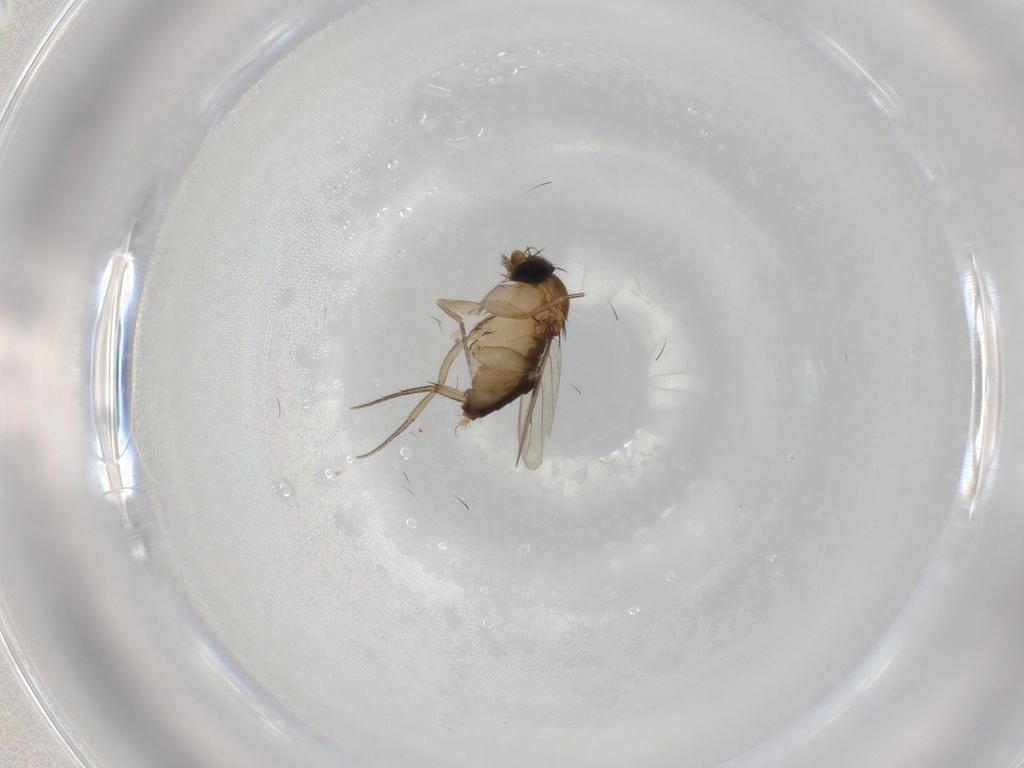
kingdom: Animalia
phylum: Arthropoda
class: Insecta
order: Diptera
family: Phoridae
